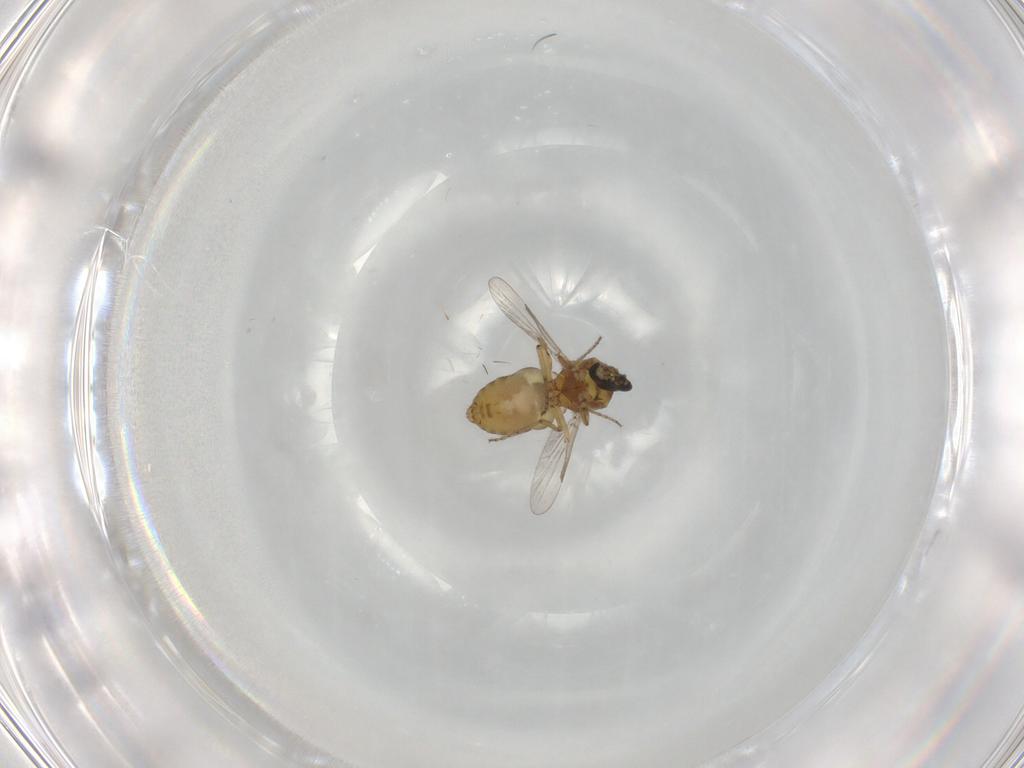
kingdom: Animalia
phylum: Arthropoda
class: Insecta
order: Diptera
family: Ceratopogonidae
